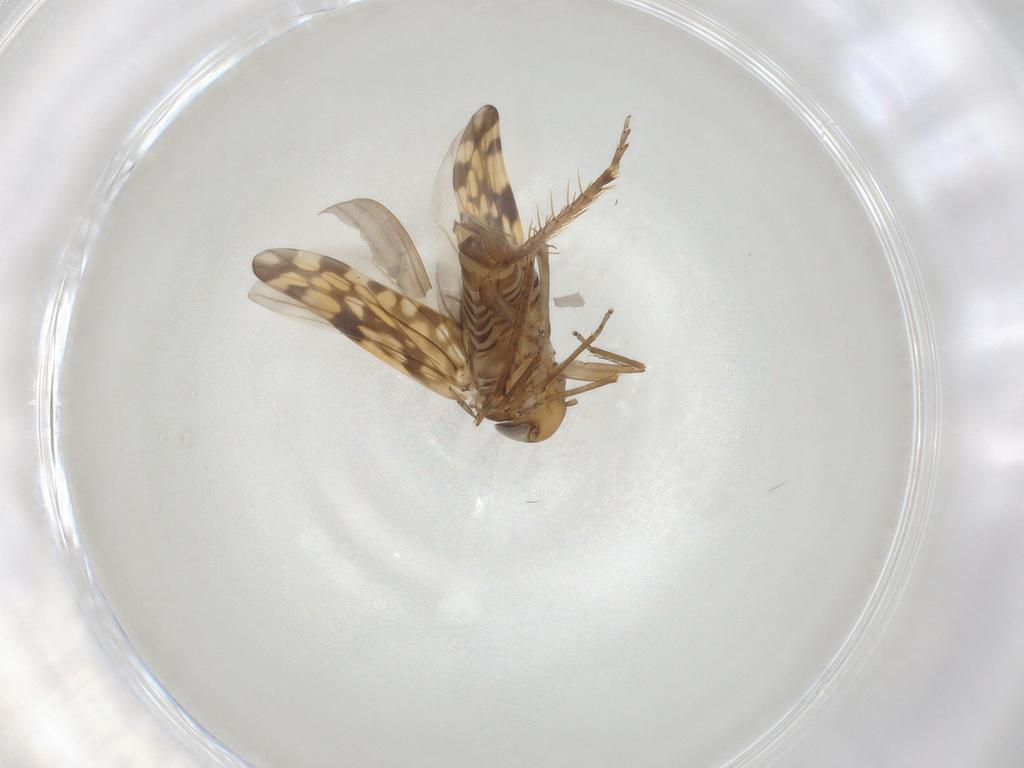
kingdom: Animalia
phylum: Arthropoda
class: Insecta
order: Hemiptera
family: Cicadellidae
